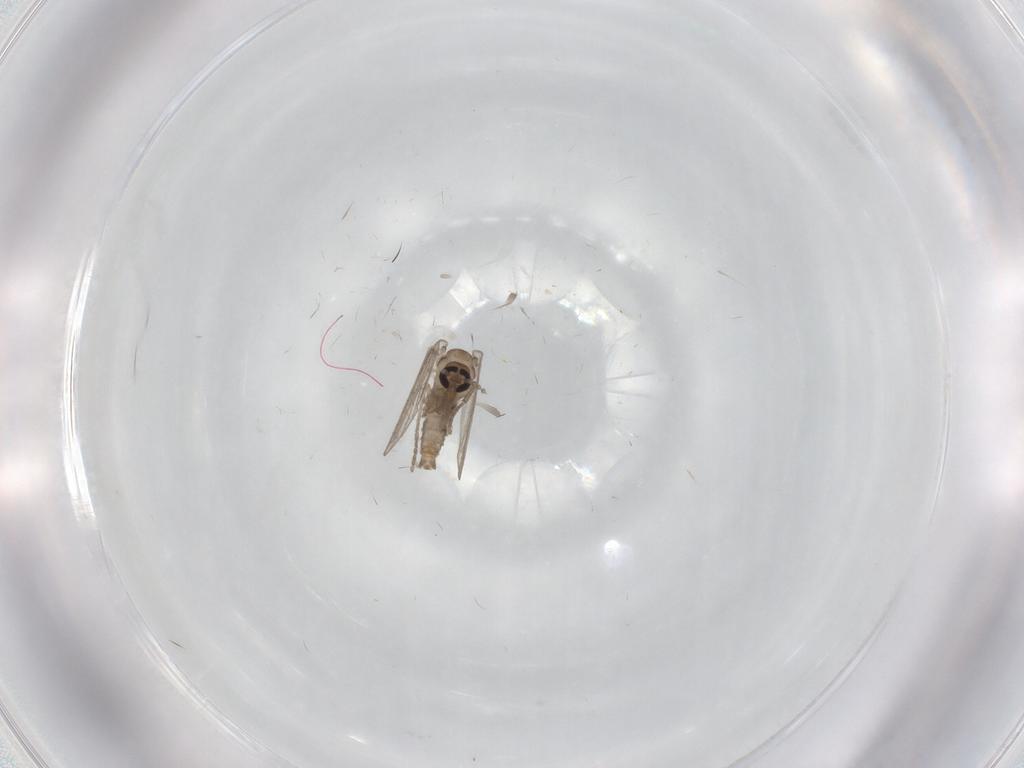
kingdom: Animalia
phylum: Arthropoda
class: Insecta
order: Diptera
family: Psychodidae
